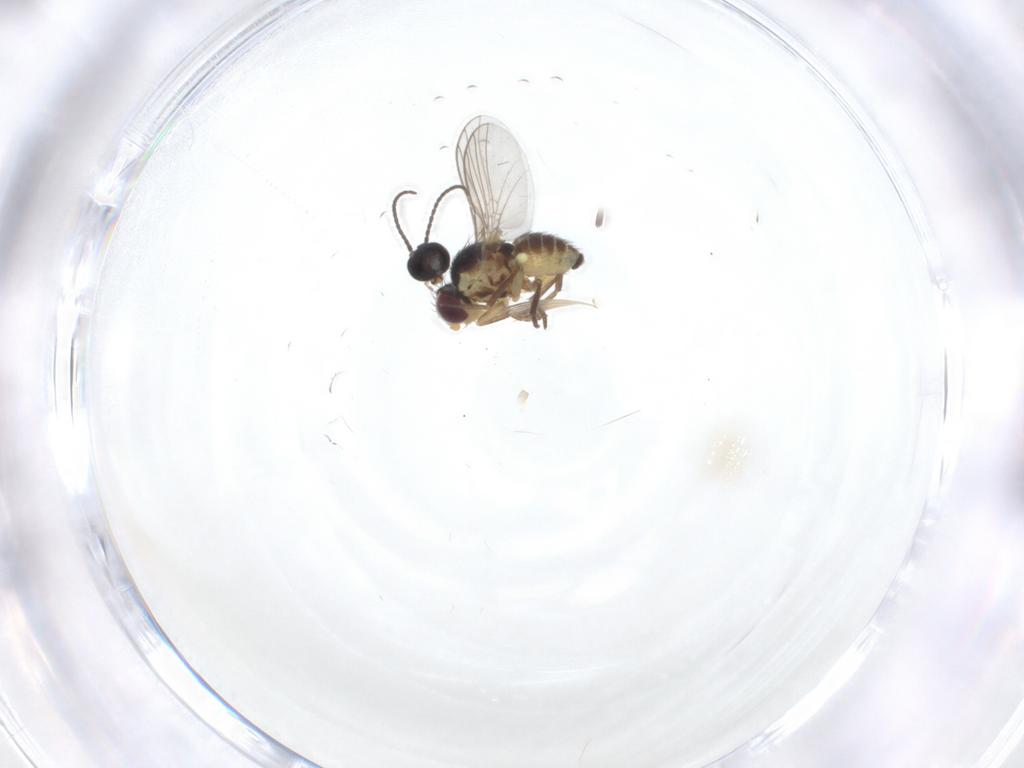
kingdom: Animalia
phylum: Arthropoda
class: Insecta
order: Diptera
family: Agromyzidae
